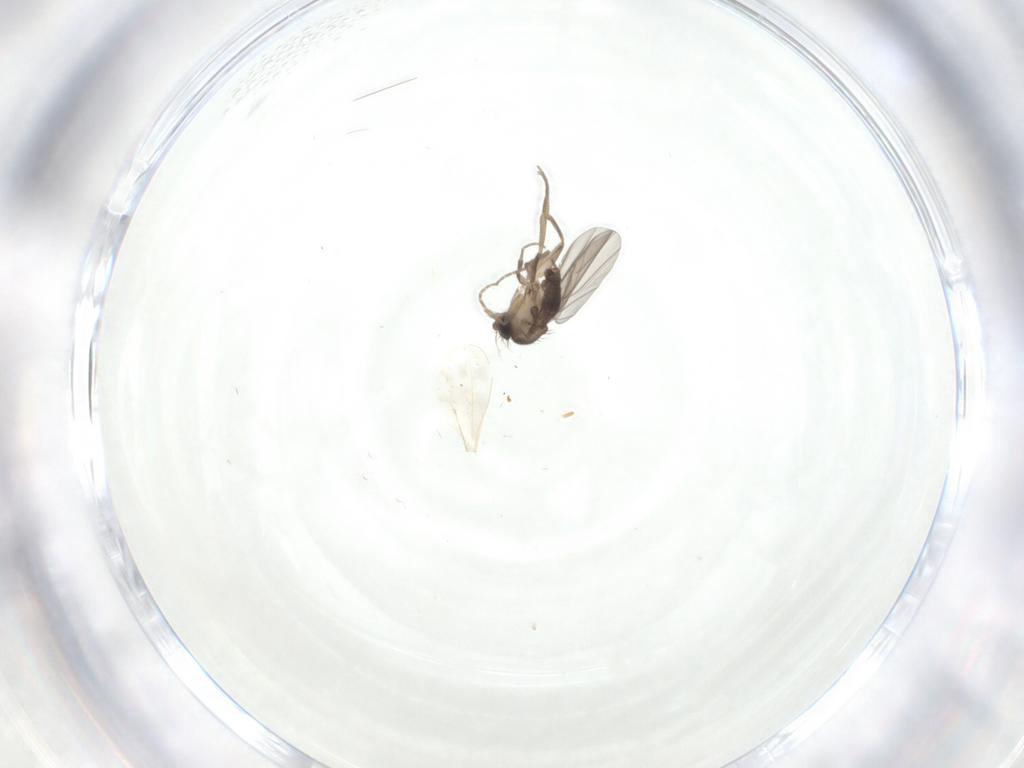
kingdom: Animalia
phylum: Arthropoda
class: Insecta
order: Diptera
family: Phoridae
